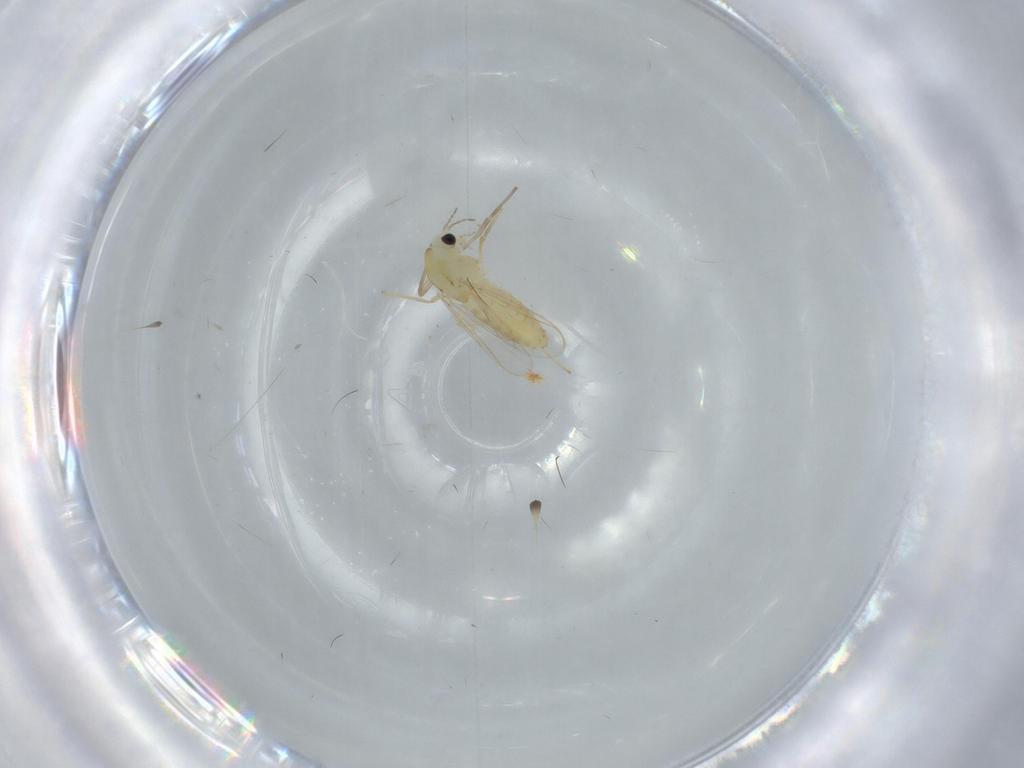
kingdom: Animalia
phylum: Arthropoda
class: Insecta
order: Diptera
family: Chironomidae
